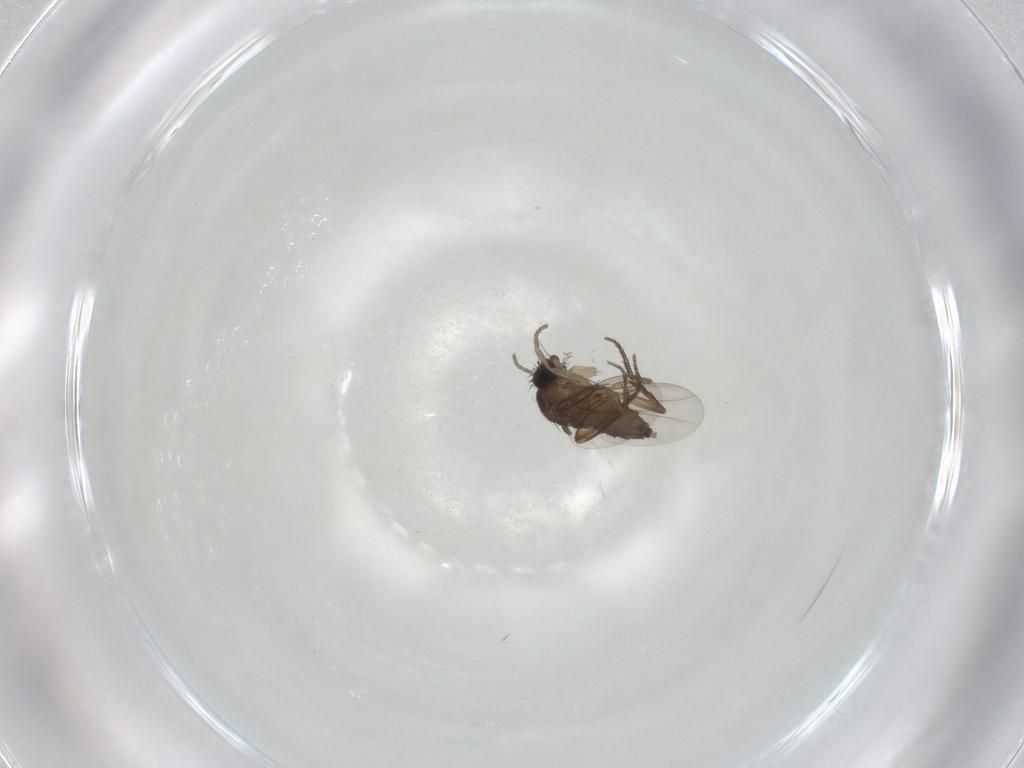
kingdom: Animalia
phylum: Arthropoda
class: Insecta
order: Diptera
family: Phoridae
